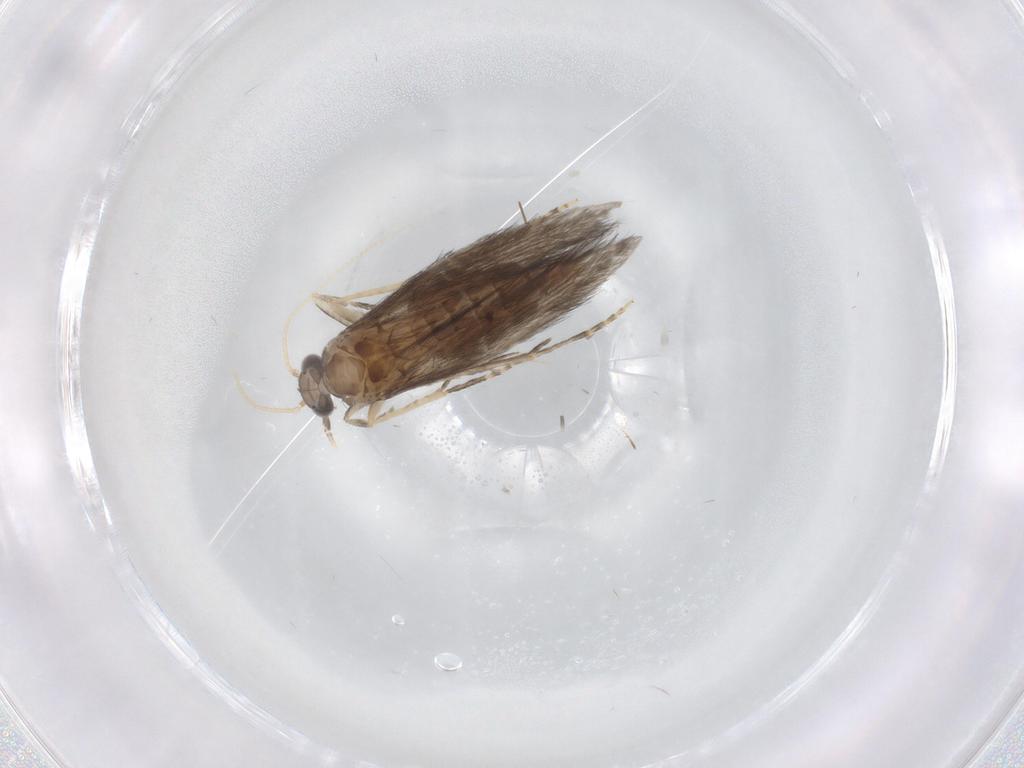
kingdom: Animalia
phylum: Arthropoda
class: Insecta
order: Trichoptera
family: Hydroptilidae
